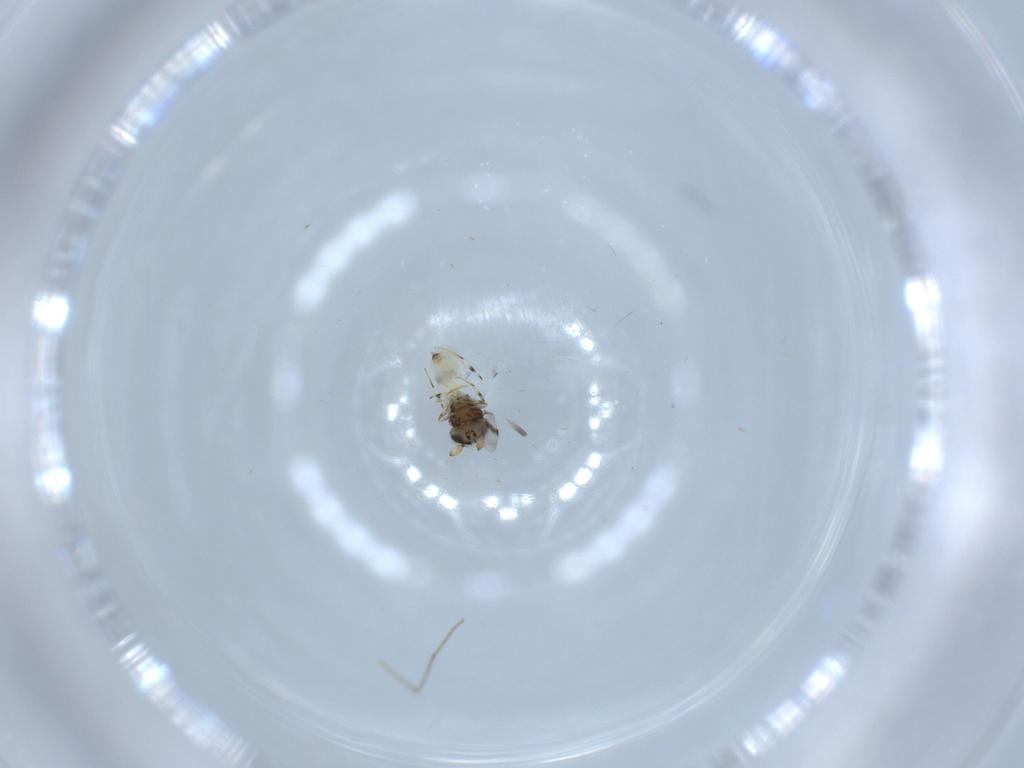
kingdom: Animalia
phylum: Arthropoda
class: Insecta
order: Hymenoptera
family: Scelionidae
